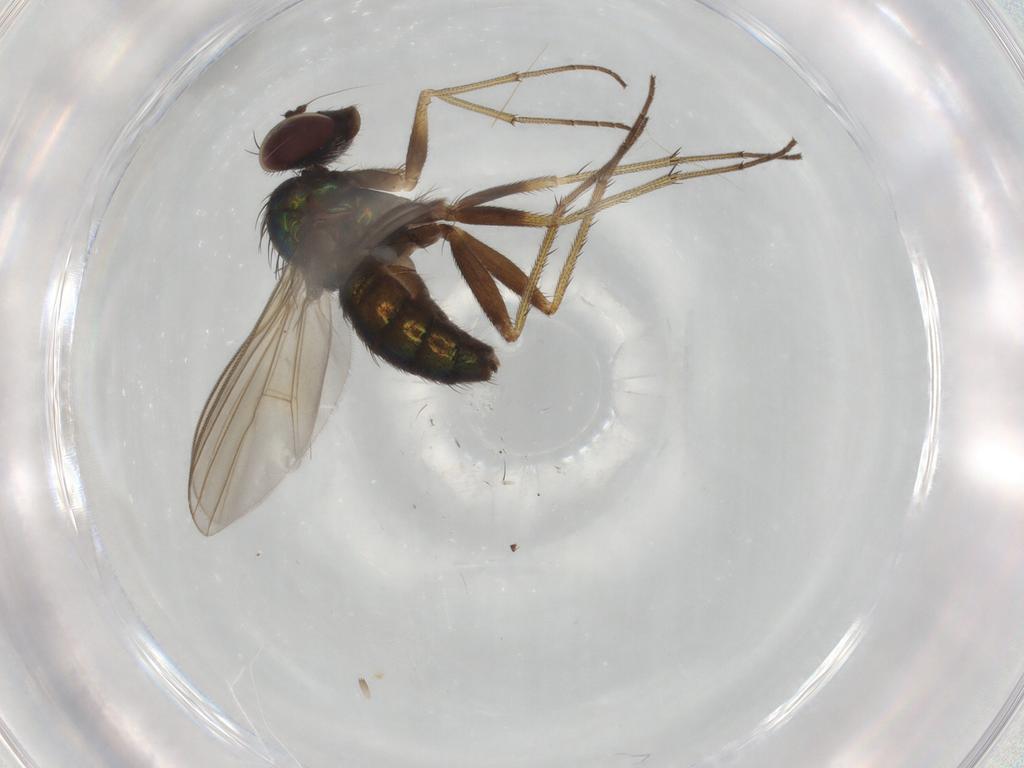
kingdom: Animalia
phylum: Arthropoda
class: Insecta
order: Diptera
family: Dolichopodidae
